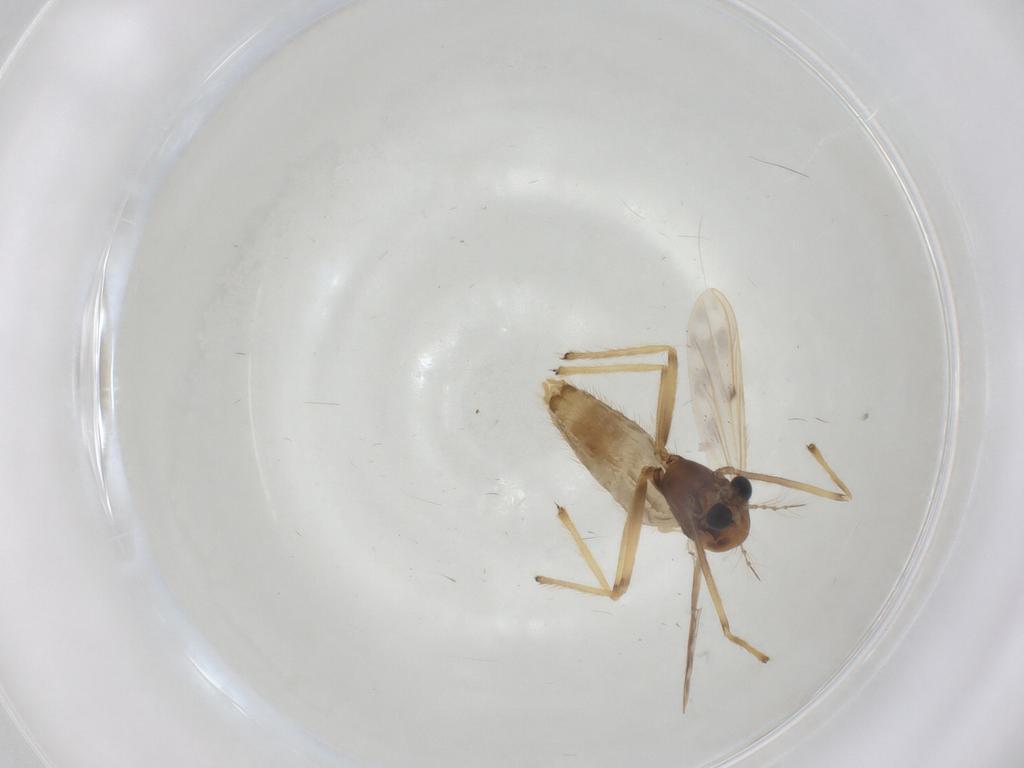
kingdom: Animalia
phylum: Arthropoda
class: Insecta
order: Diptera
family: Chironomidae
